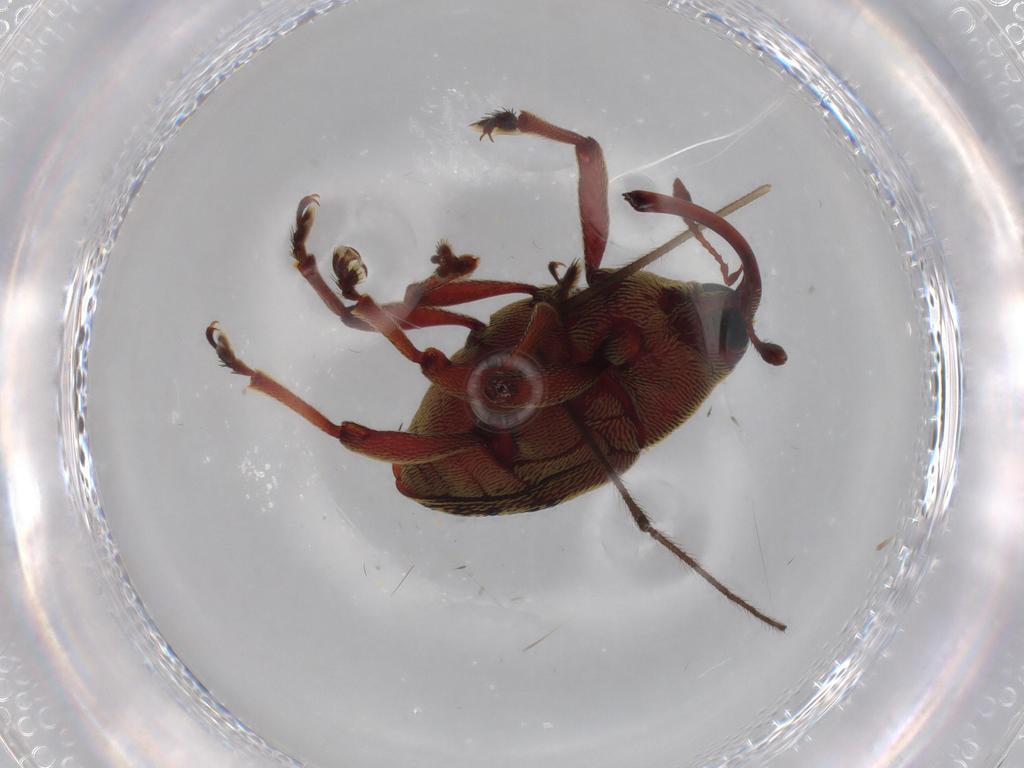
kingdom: Animalia
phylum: Arthropoda
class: Insecta
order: Coleoptera
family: Curculionidae
